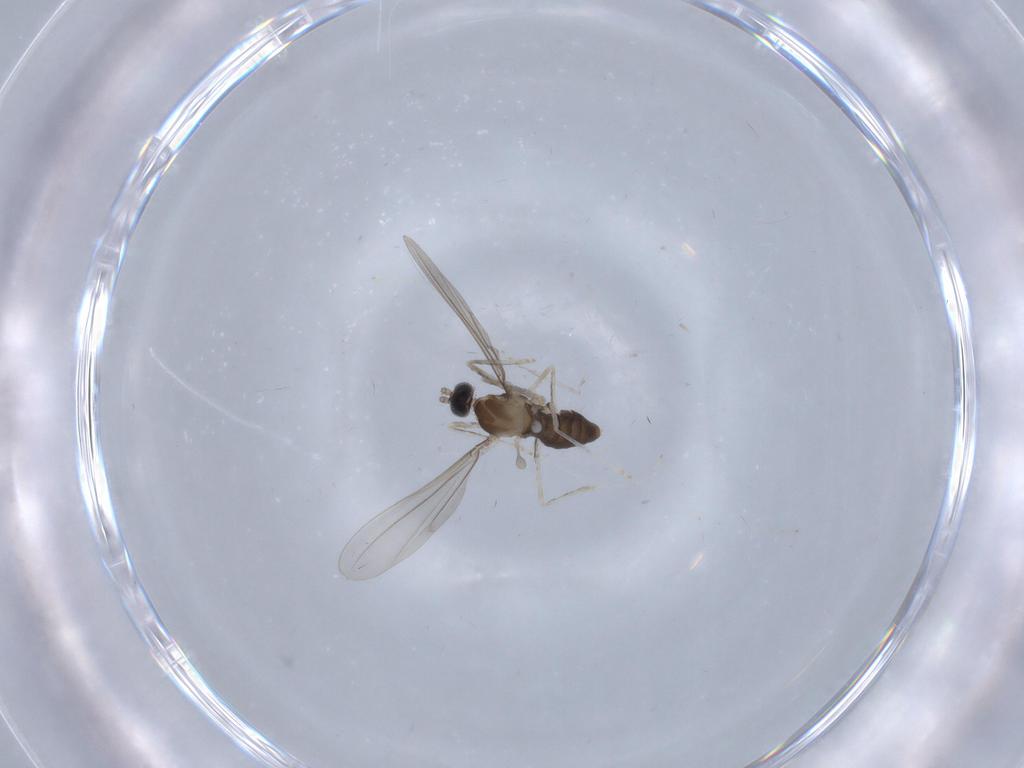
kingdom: Animalia
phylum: Arthropoda
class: Insecta
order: Diptera
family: Cecidomyiidae
